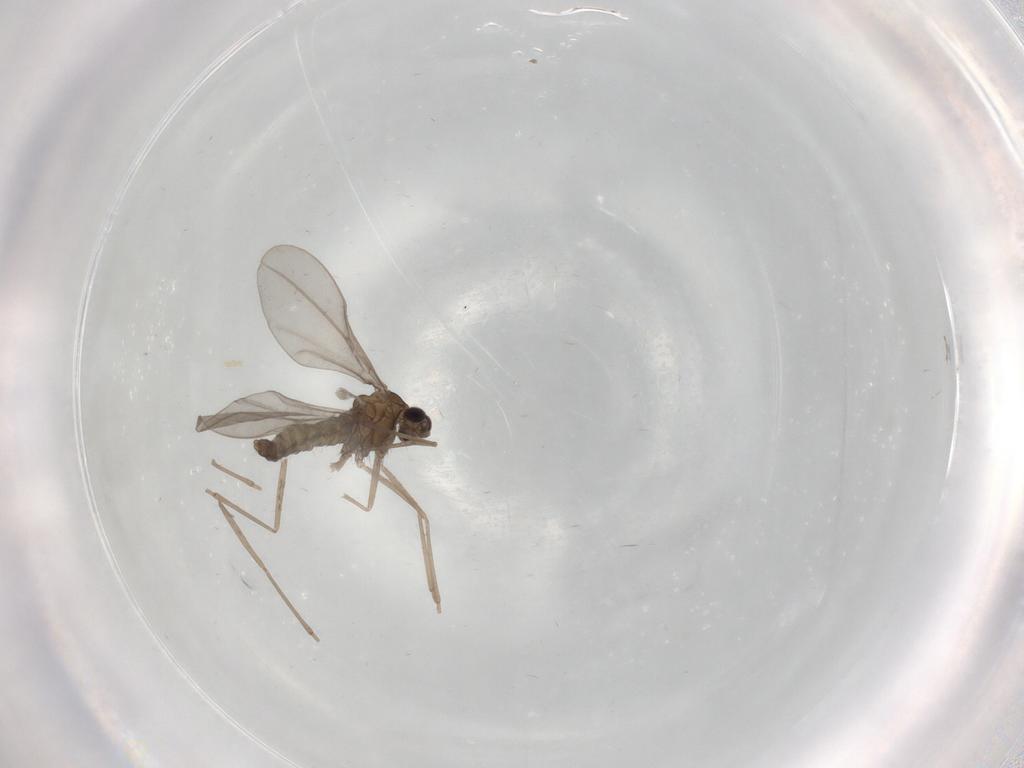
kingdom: Animalia
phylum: Arthropoda
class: Insecta
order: Diptera
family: Cecidomyiidae
